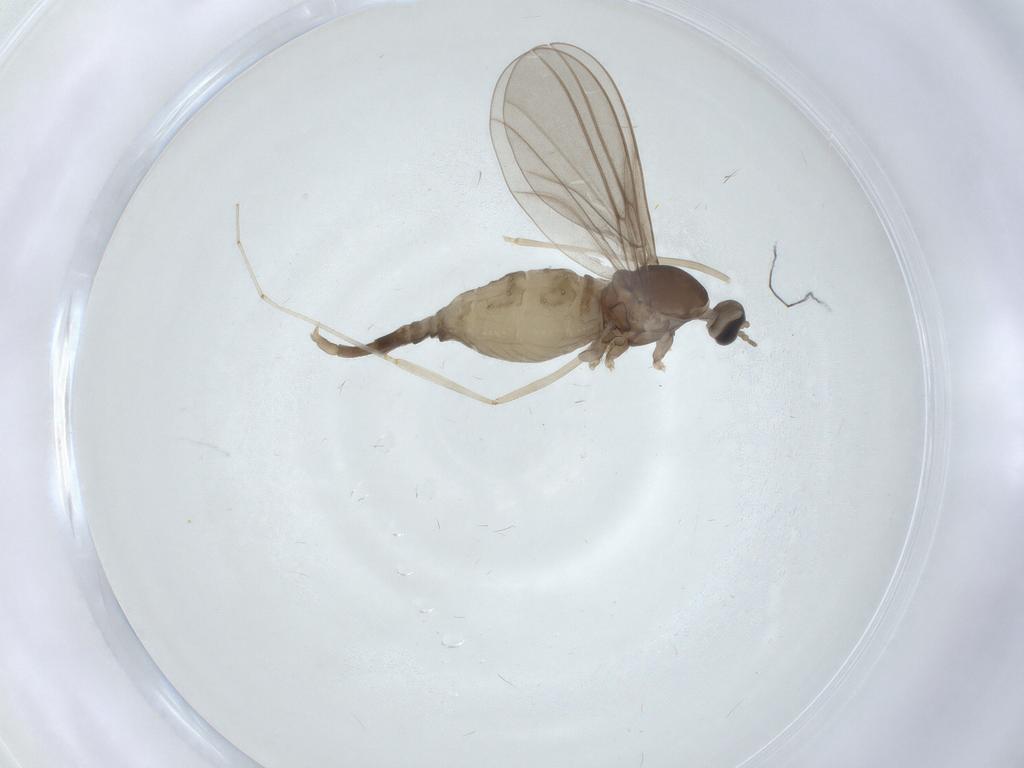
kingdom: Animalia
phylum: Arthropoda
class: Insecta
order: Diptera
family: Cecidomyiidae
